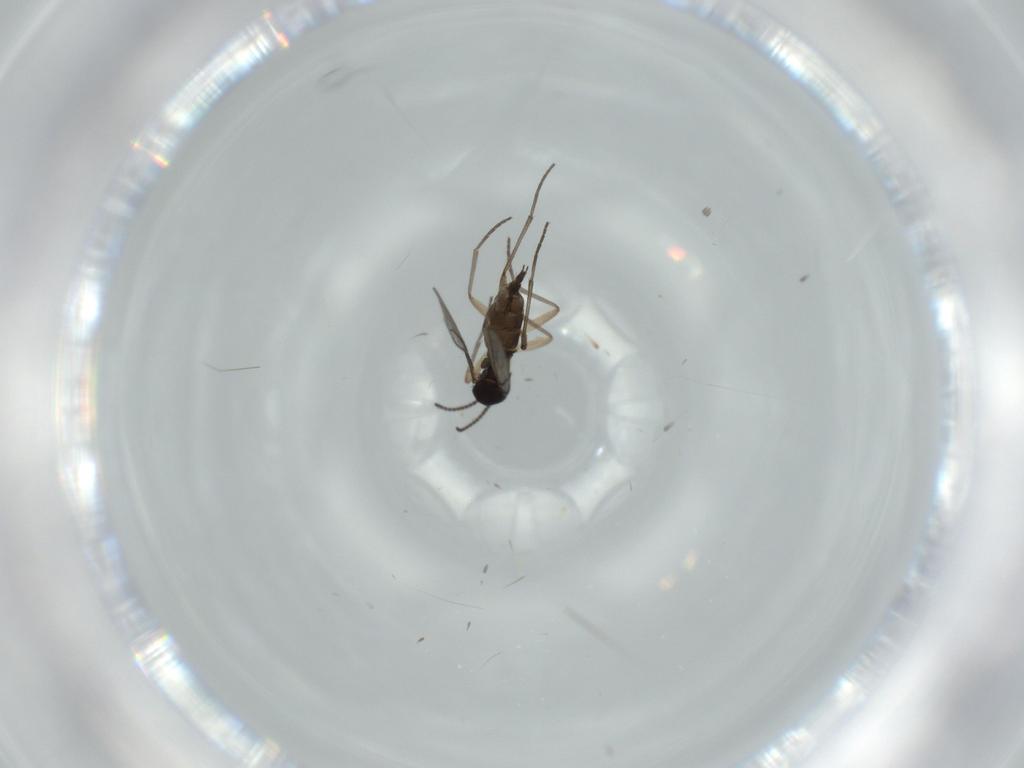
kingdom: Animalia
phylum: Arthropoda
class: Insecta
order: Diptera
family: Sciaridae
